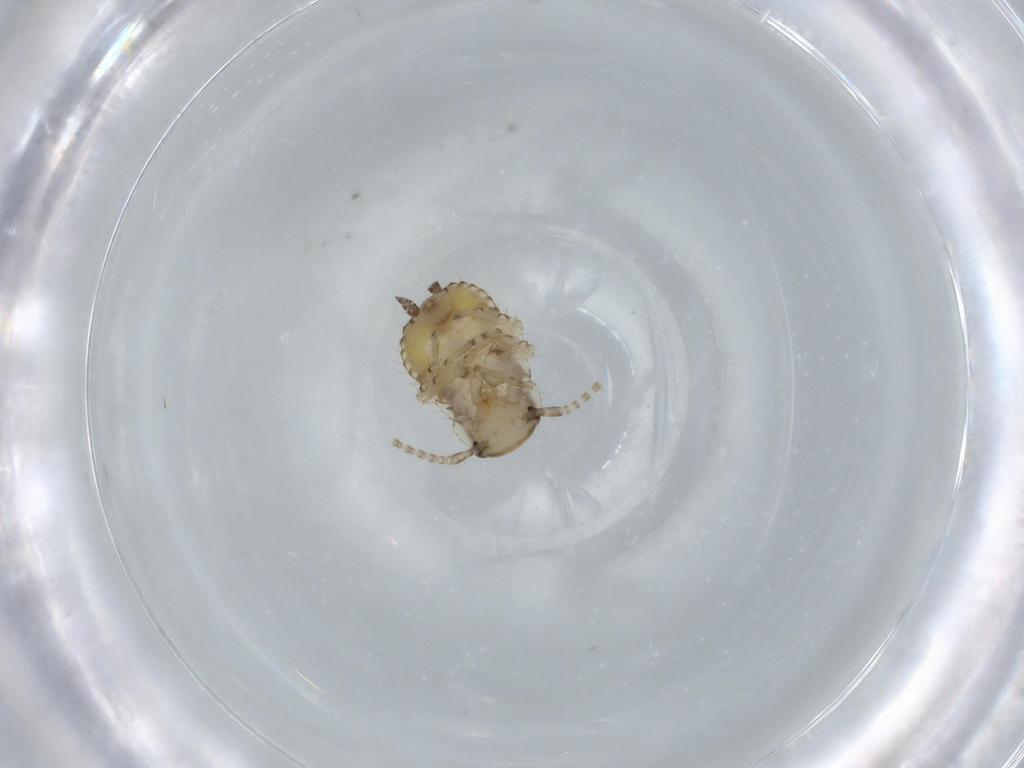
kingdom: Animalia
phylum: Arthropoda
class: Insecta
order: Blattodea
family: Ectobiidae
